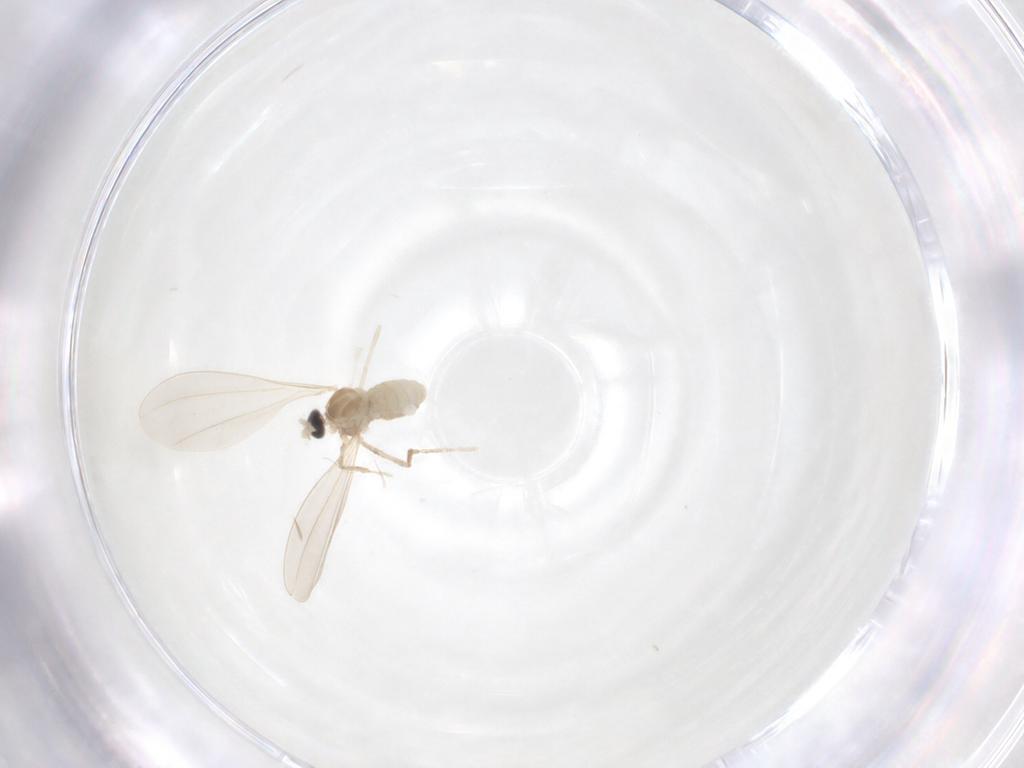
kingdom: Animalia
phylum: Arthropoda
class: Insecta
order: Diptera
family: Cecidomyiidae
